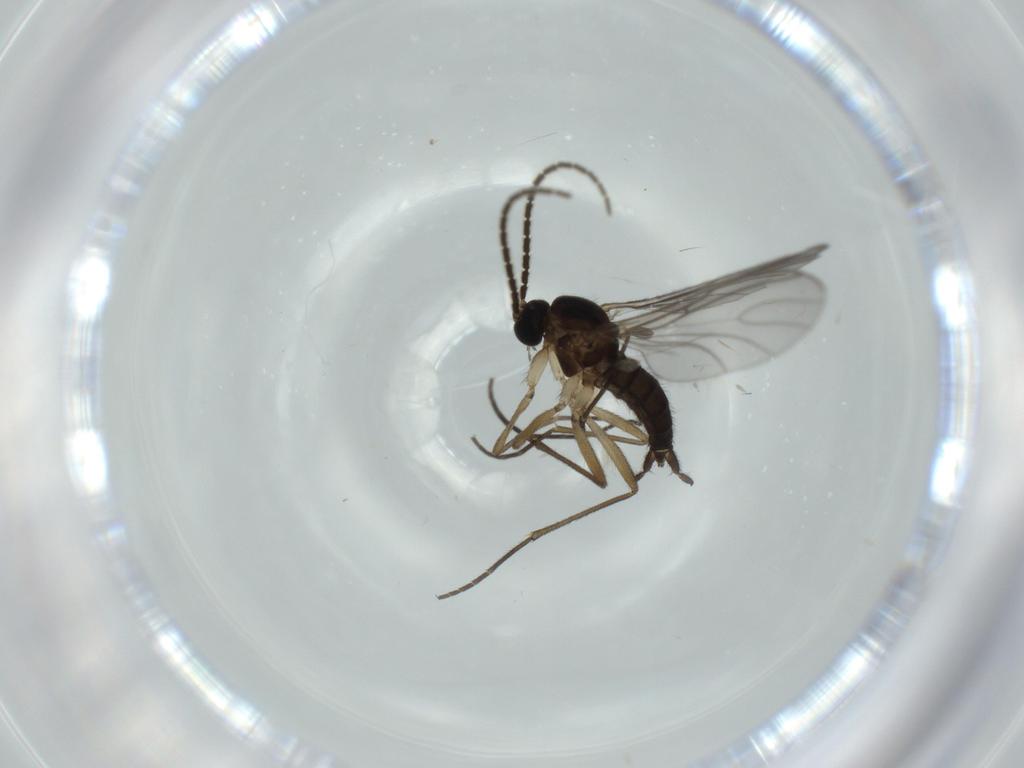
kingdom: Animalia
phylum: Arthropoda
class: Insecta
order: Diptera
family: Sciaridae
